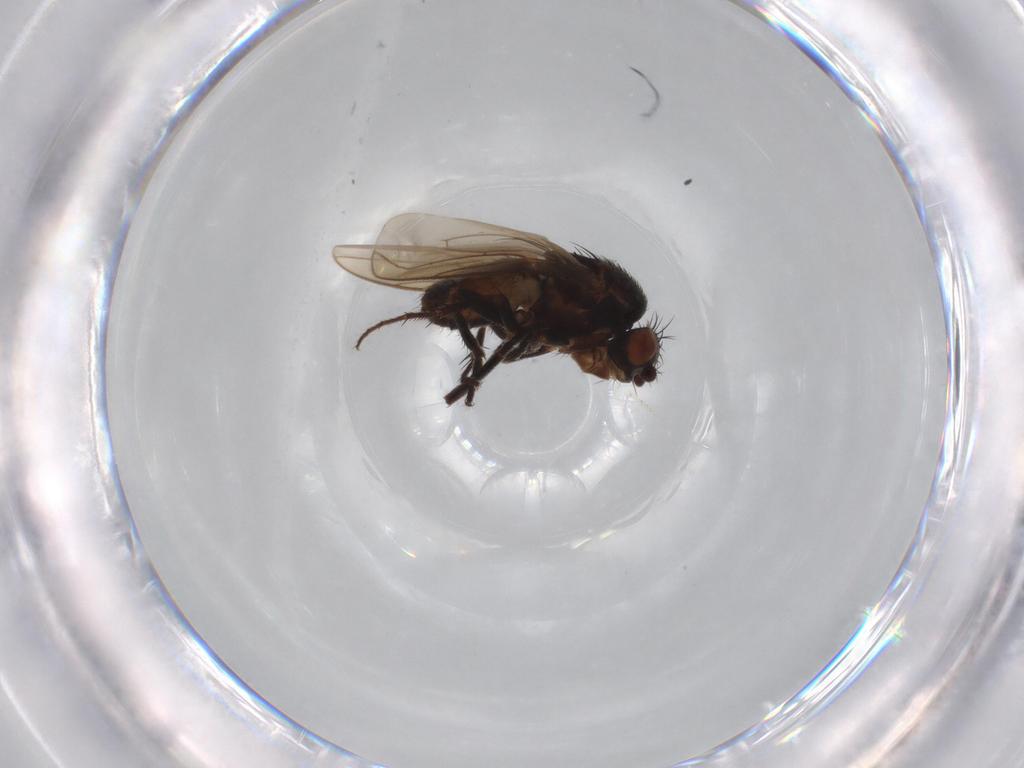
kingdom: Animalia
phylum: Arthropoda
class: Insecta
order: Diptera
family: Sphaeroceridae
